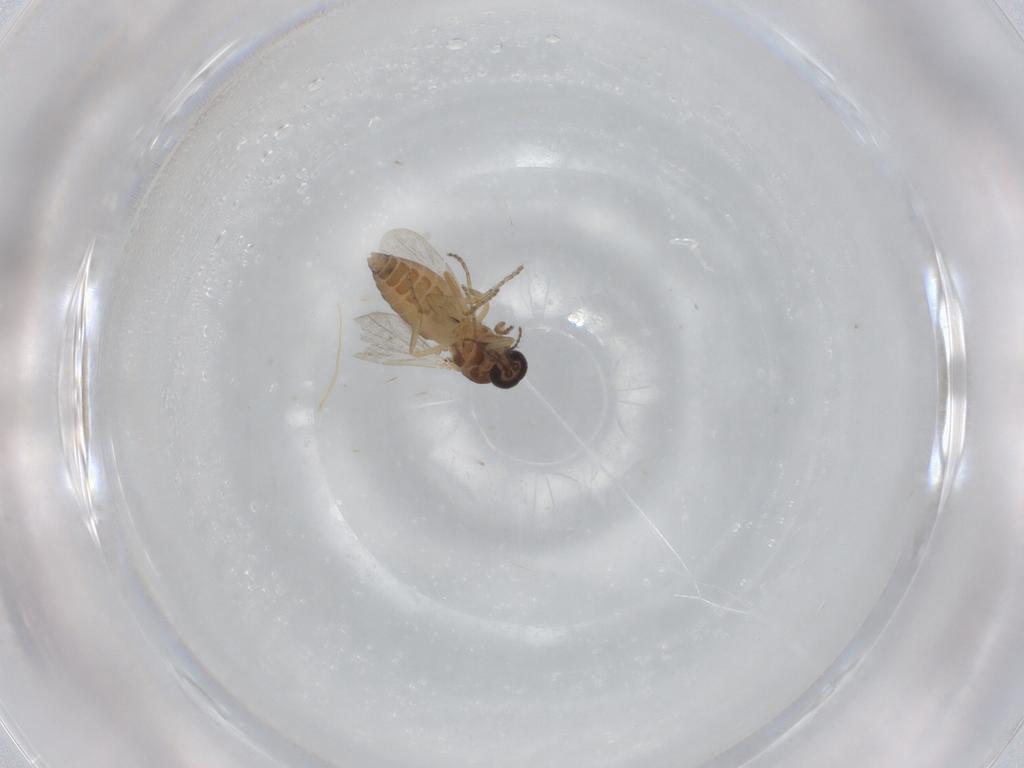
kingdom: Animalia
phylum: Arthropoda
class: Insecta
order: Diptera
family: Ceratopogonidae
